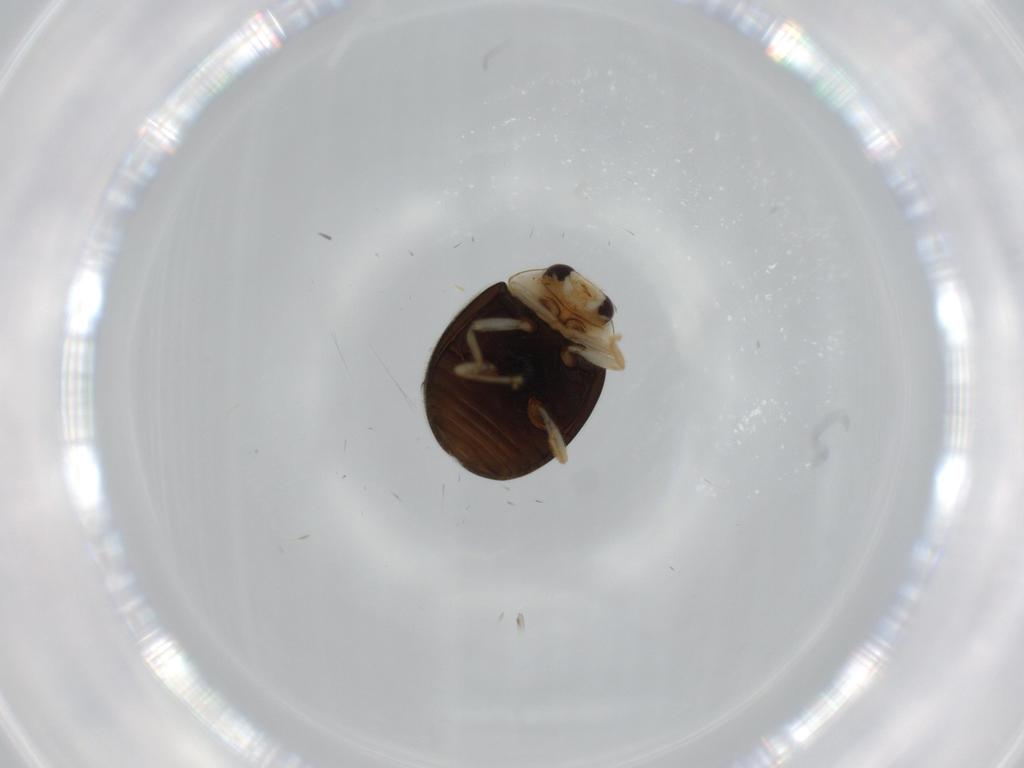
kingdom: Animalia
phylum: Arthropoda
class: Insecta
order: Coleoptera
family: Coccinellidae
